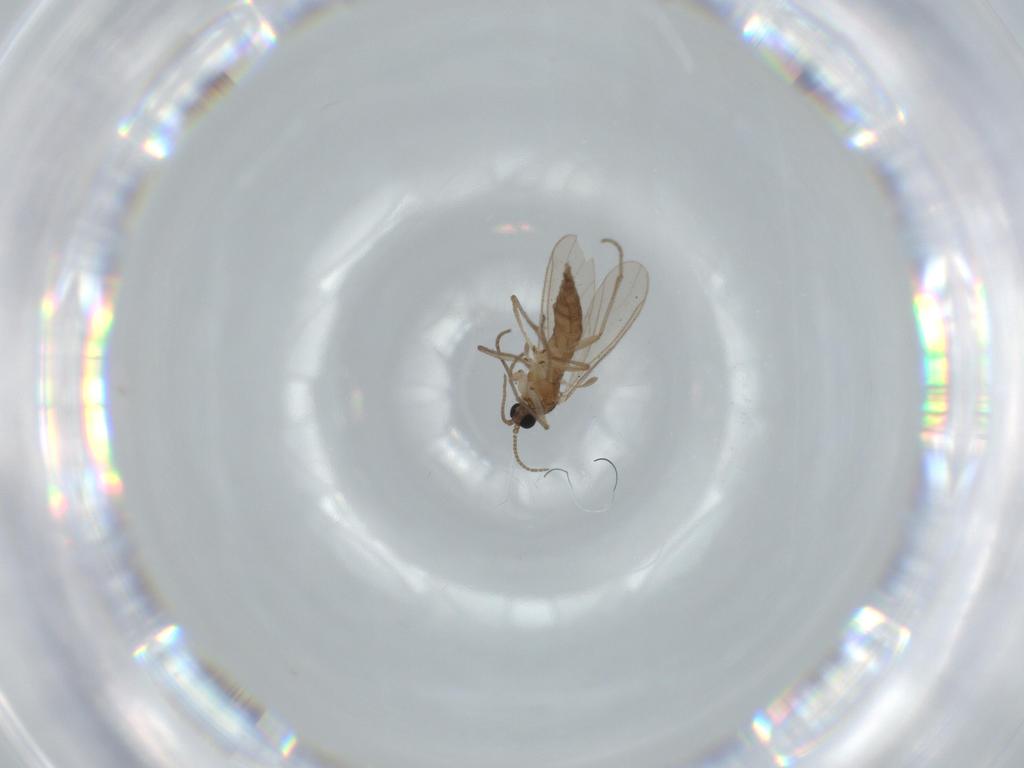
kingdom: Animalia
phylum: Arthropoda
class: Insecta
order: Diptera
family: Sciaridae
